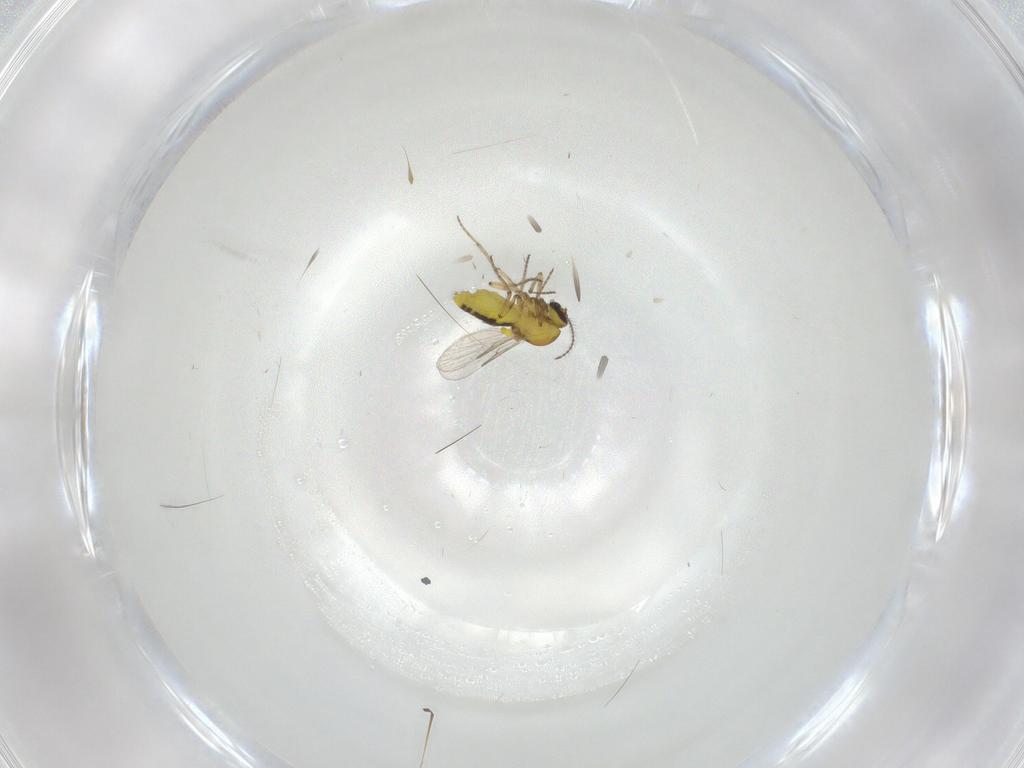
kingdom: Animalia
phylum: Arthropoda
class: Insecta
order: Diptera
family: Ceratopogonidae
